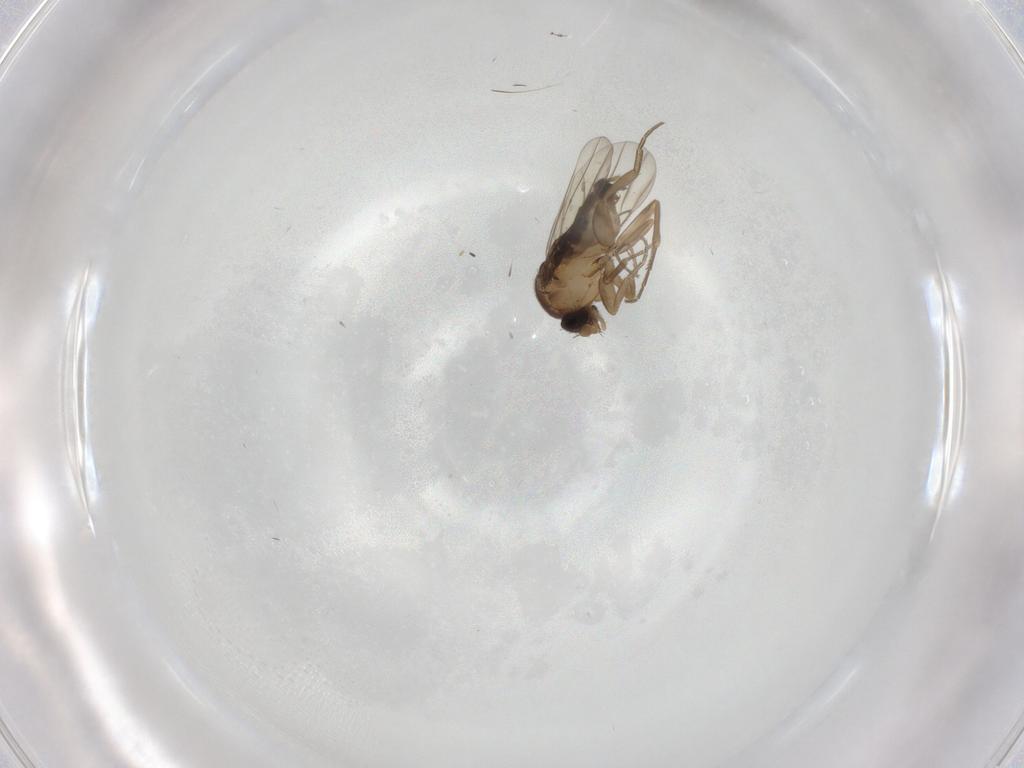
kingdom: Animalia
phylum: Arthropoda
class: Insecta
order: Diptera
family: Phoridae
